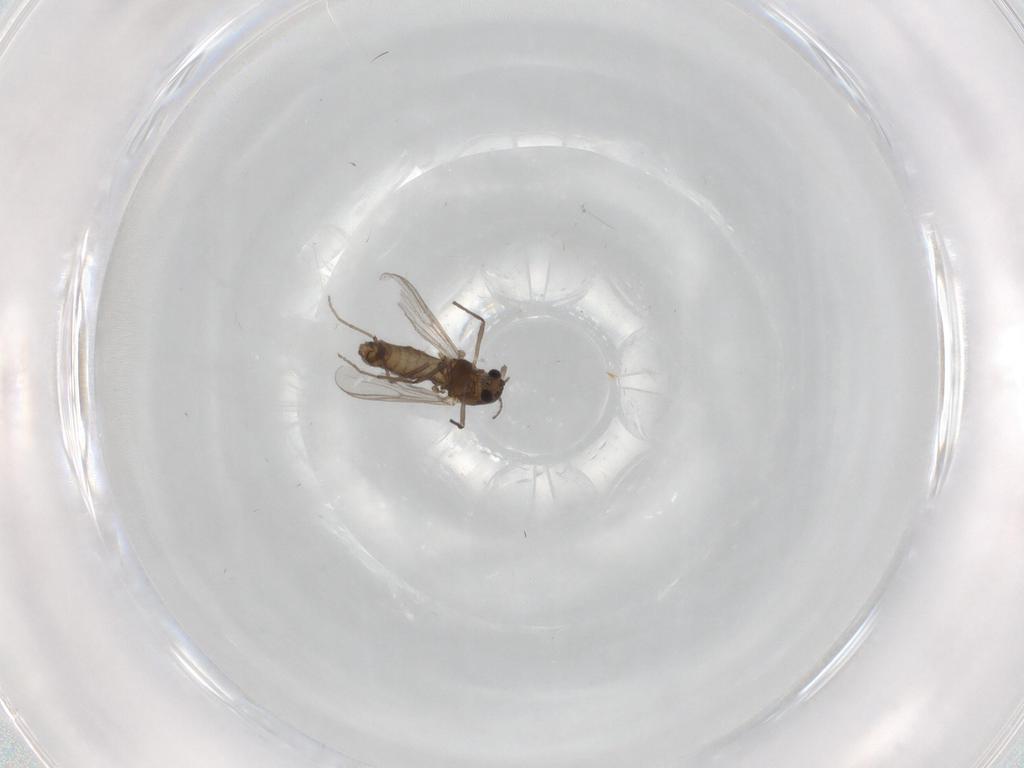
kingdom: Animalia
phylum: Arthropoda
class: Insecta
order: Diptera
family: Chironomidae
